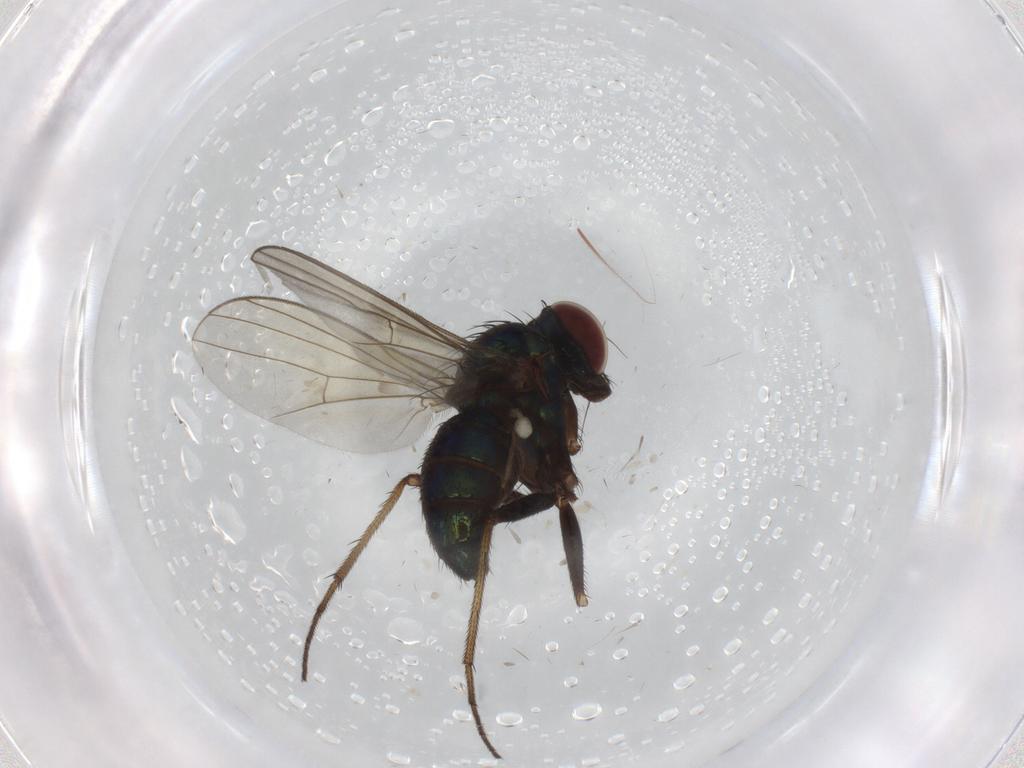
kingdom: Animalia
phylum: Arthropoda
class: Insecta
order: Diptera
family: Dolichopodidae
